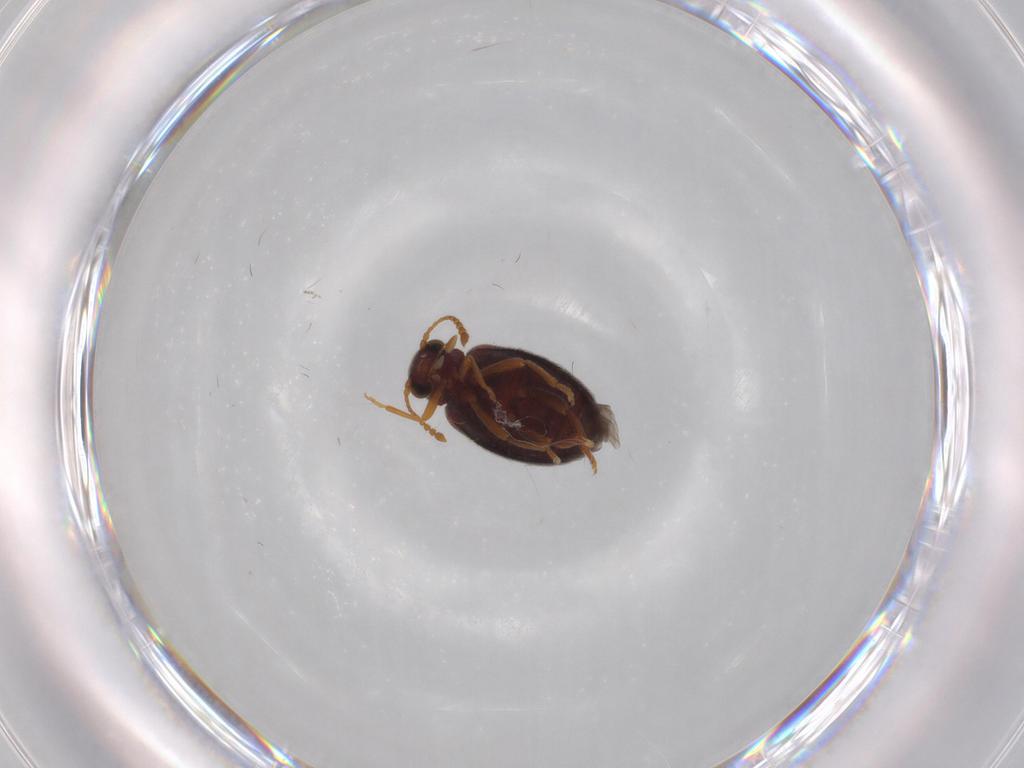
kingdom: Animalia
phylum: Arthropoda
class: Insecta
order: Coleoptera
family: Aderidae
